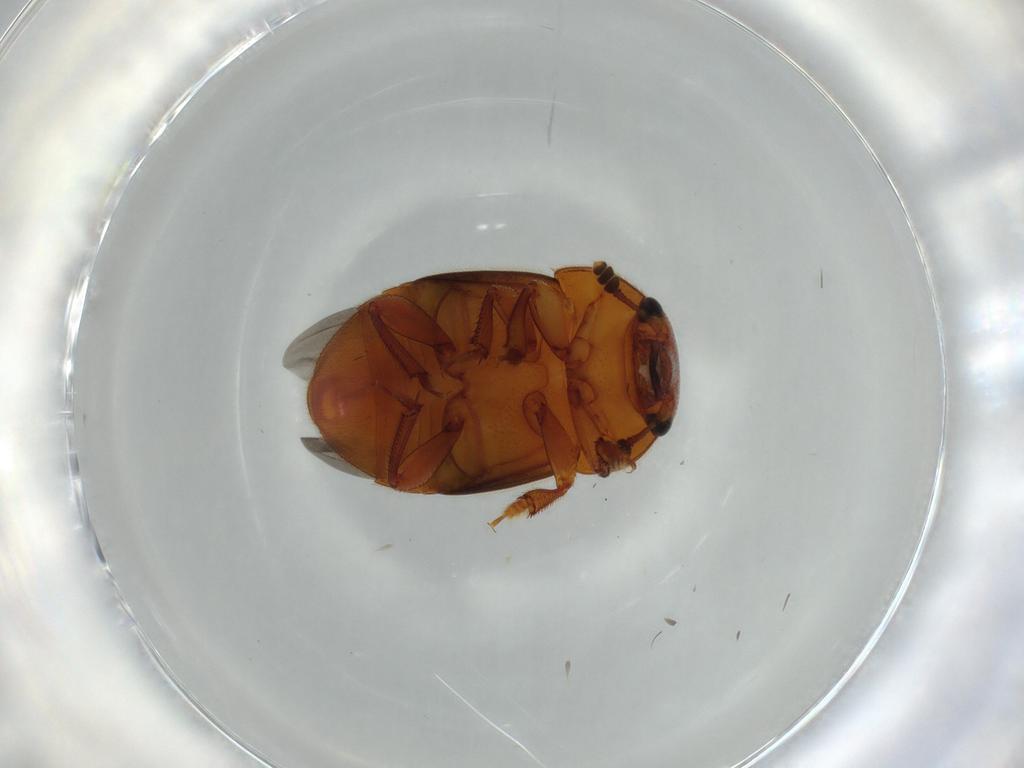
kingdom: Animalia
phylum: Arthropoda
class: Insecta
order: Coleoptera
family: Nitidulidae
